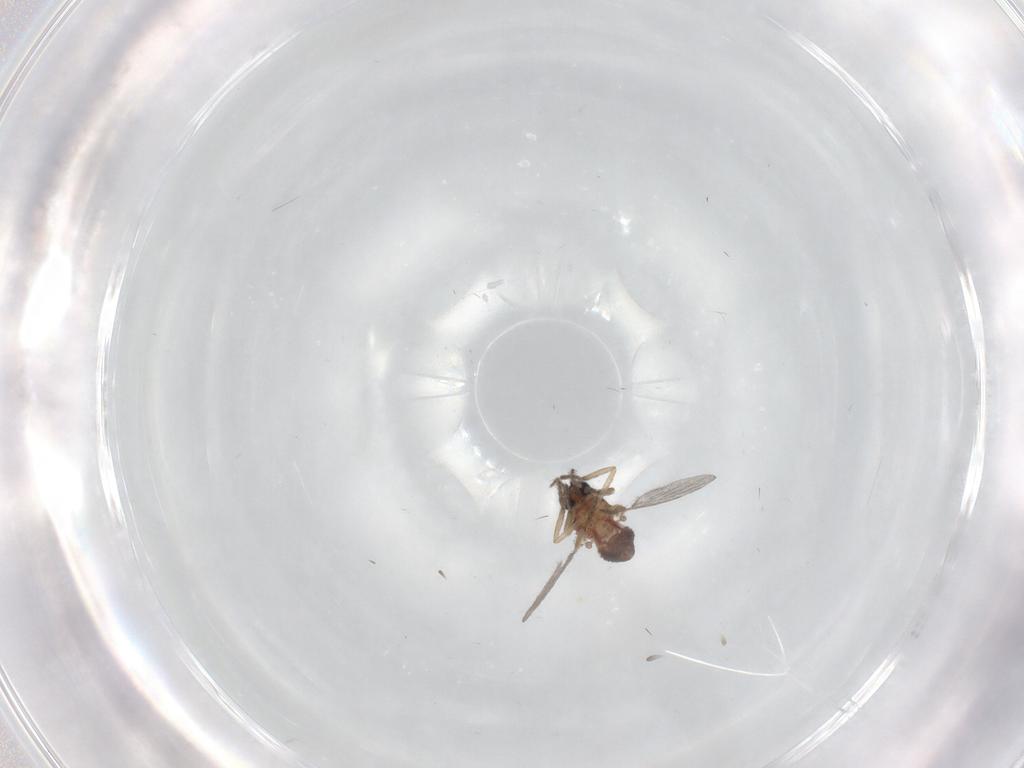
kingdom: Animalia
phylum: Arthropoda
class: Insecta
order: Diptera
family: Ceratopogonidae
